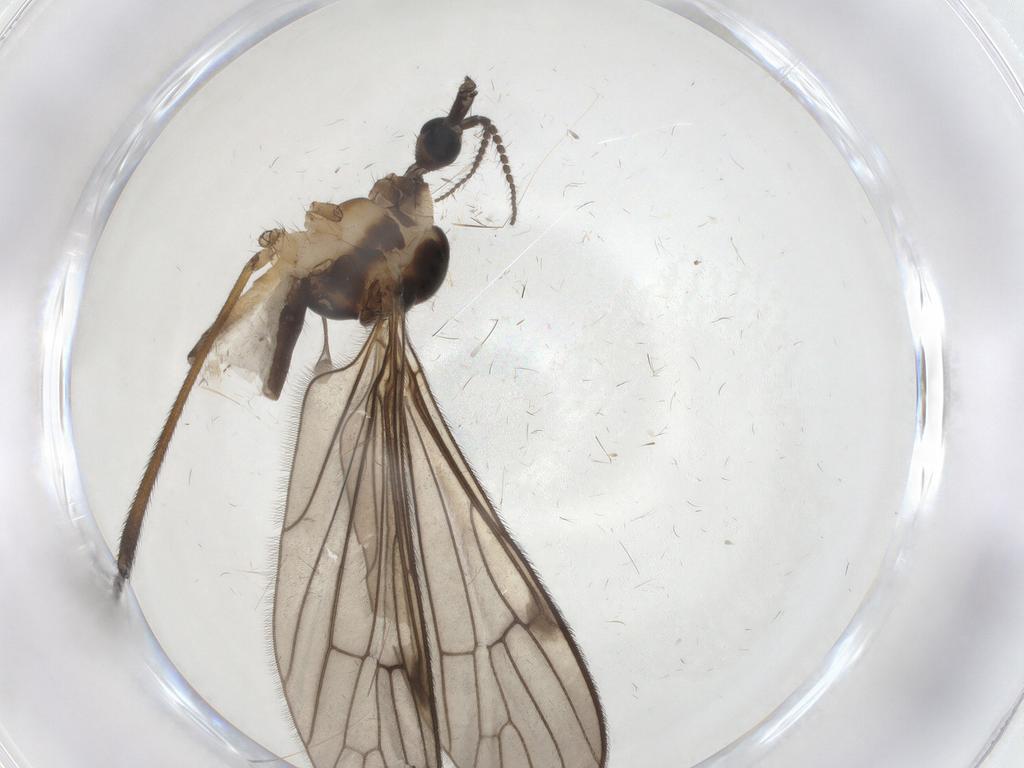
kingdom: Animalia
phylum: Arthropoda
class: Insecta
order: Diptera
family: Limoniidae
